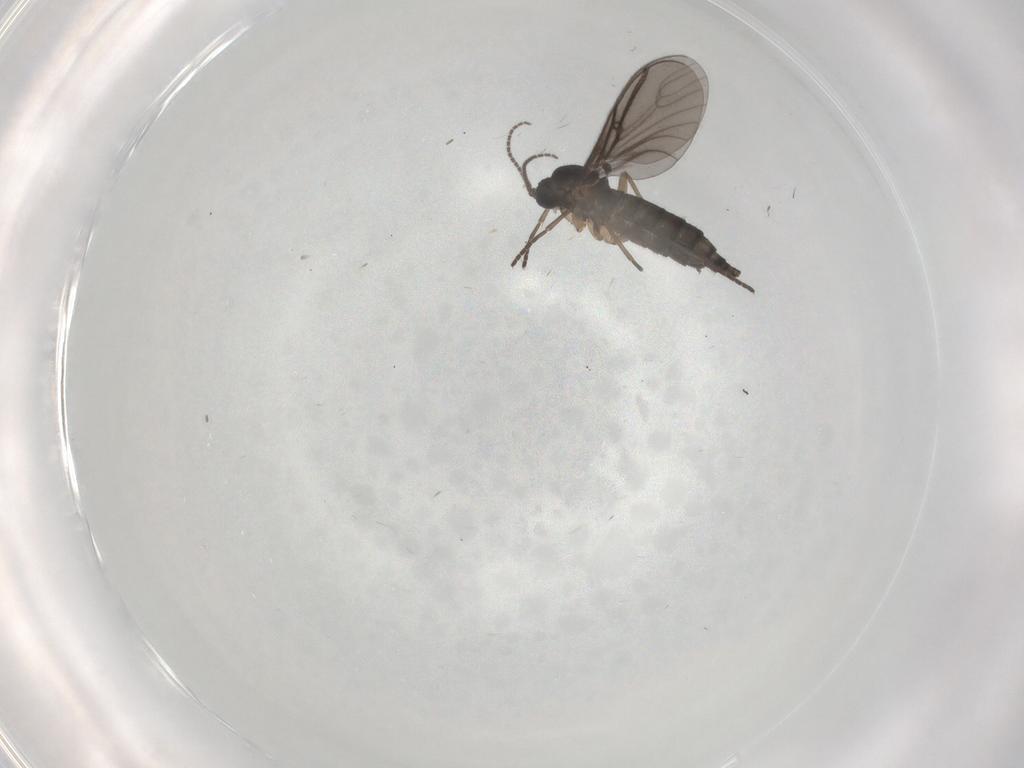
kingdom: Animalia
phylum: Arthropoda
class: Insecta
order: Diptera
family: Sciaridae
